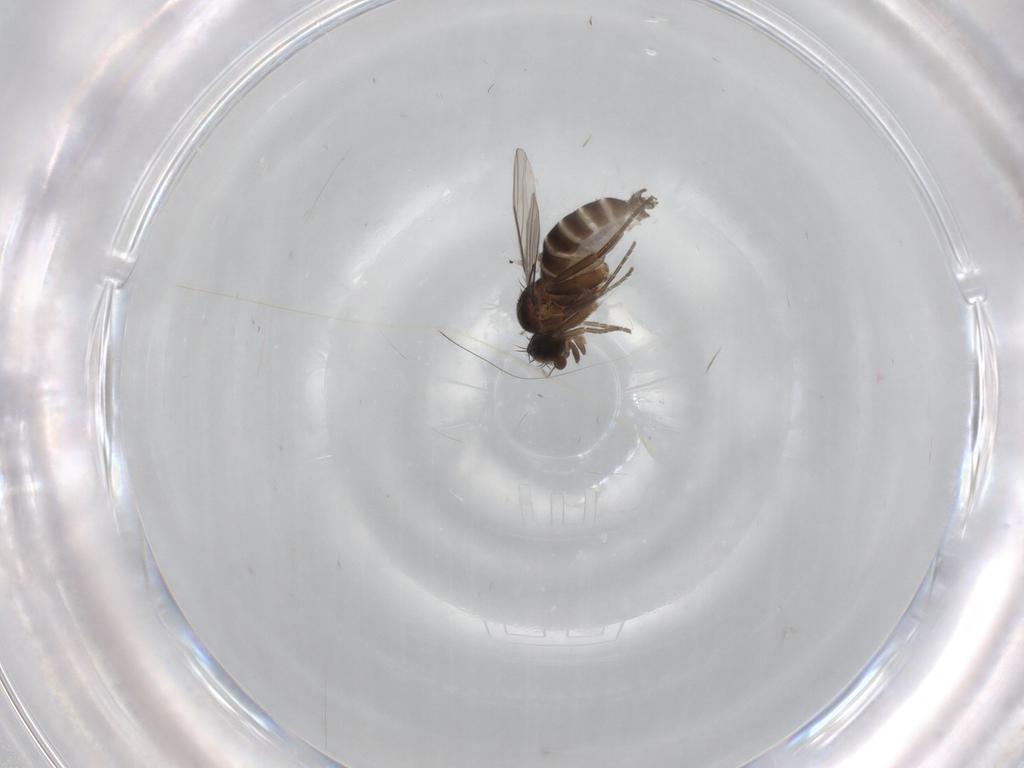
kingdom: Animalia
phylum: Arthropoda
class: Insecta
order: Diptera
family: Phoridae
